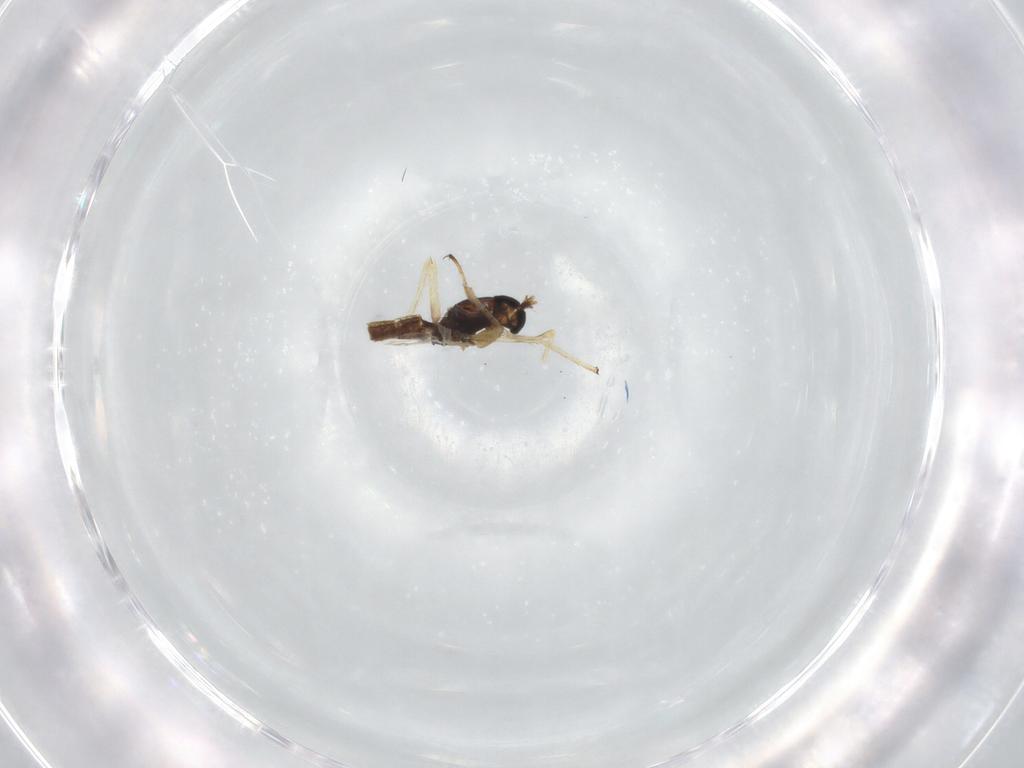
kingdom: Animalia
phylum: Arthropoda
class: Insecta
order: Diptera
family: Chironomidae
